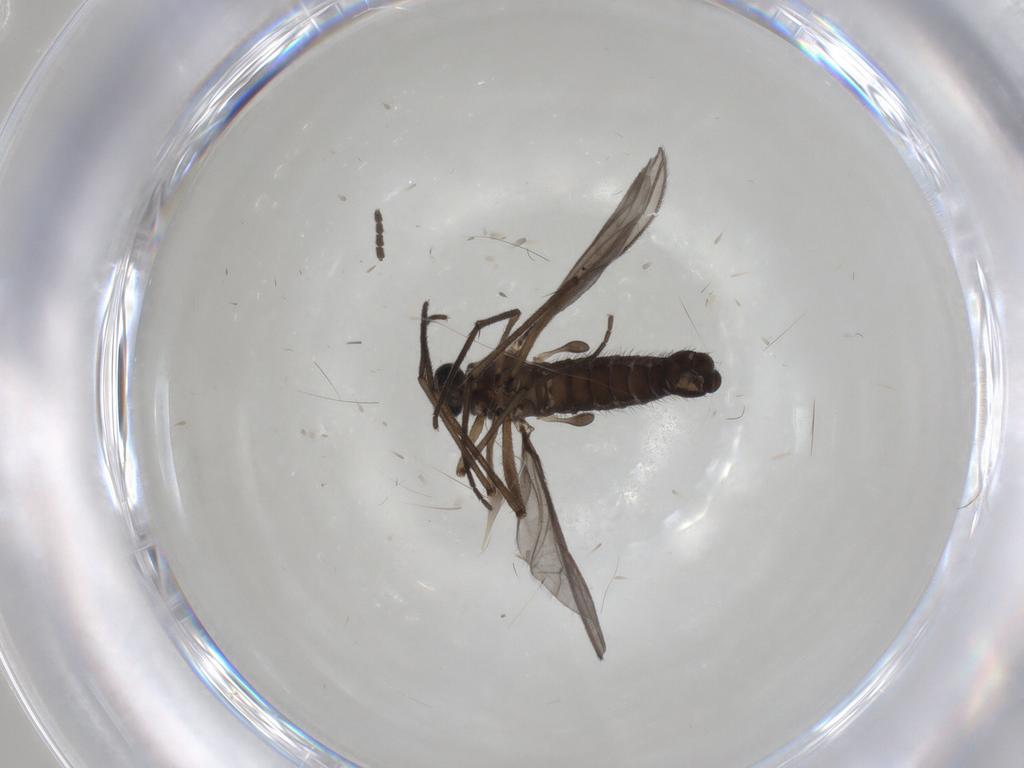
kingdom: Animalia
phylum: Arthropoda
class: Insecta
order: Diptera
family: Sciaridae
